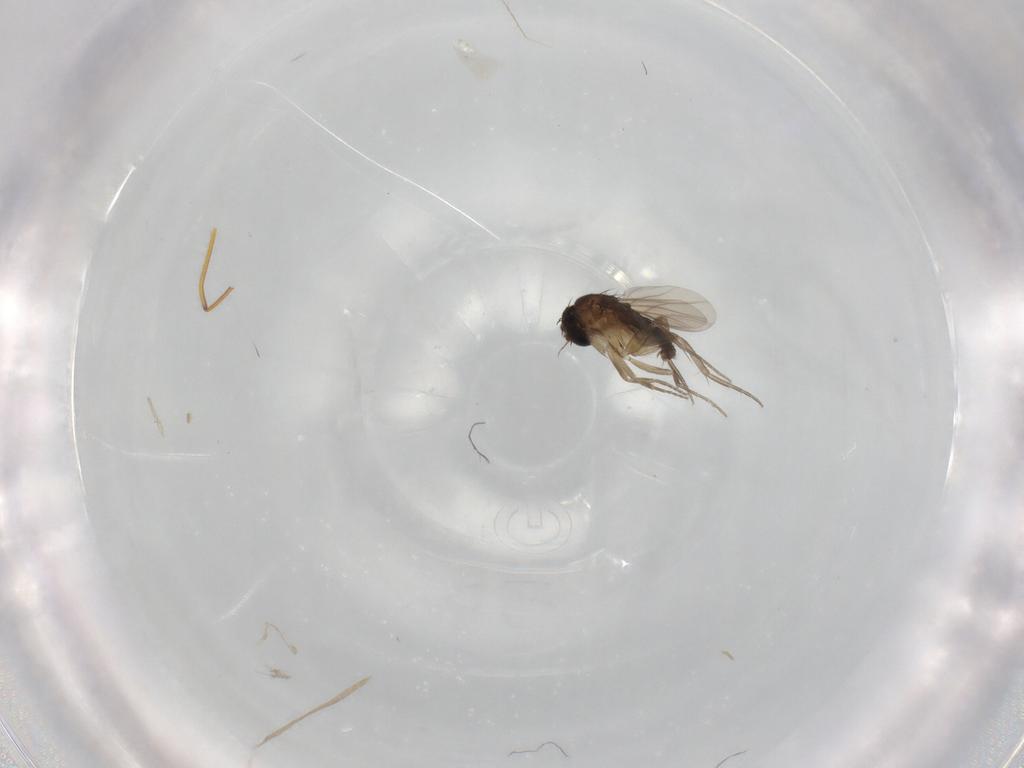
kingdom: Animalia
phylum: Arthropoda
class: Insecta
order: Diptera
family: Phoridae
